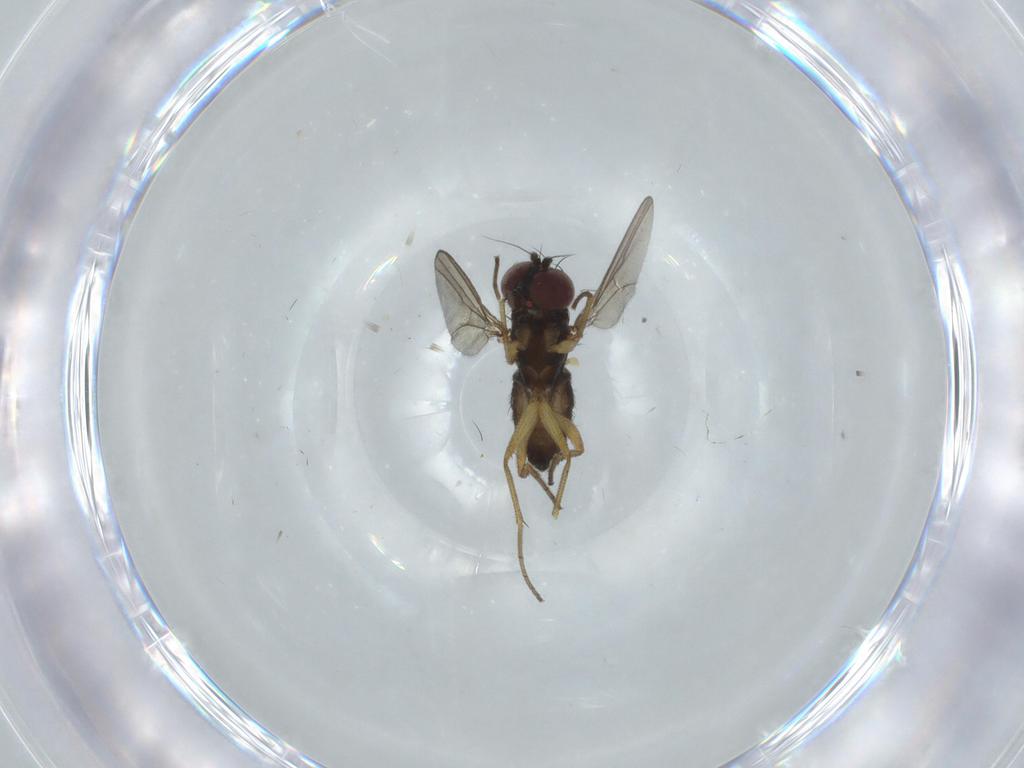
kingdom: Animalia
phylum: Arthropoda
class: Insecta
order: Diptera
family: Dolichopodidae
